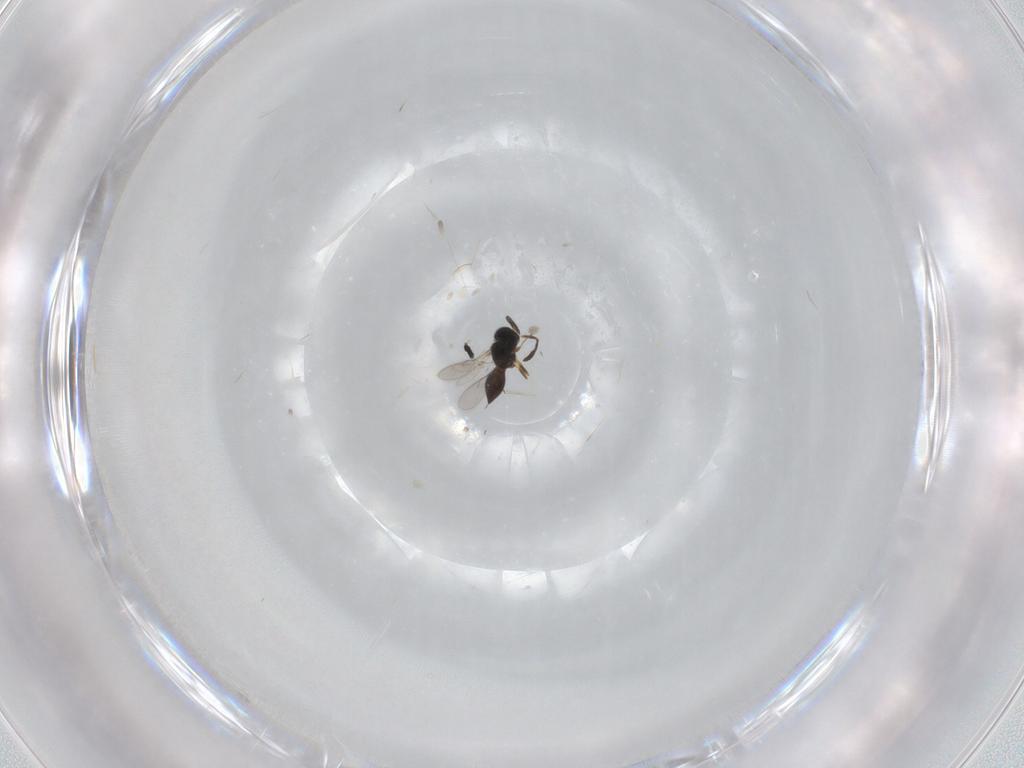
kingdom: Animalia
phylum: Arthropoda
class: Insecta
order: Hymenoptera
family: Scelionidae
